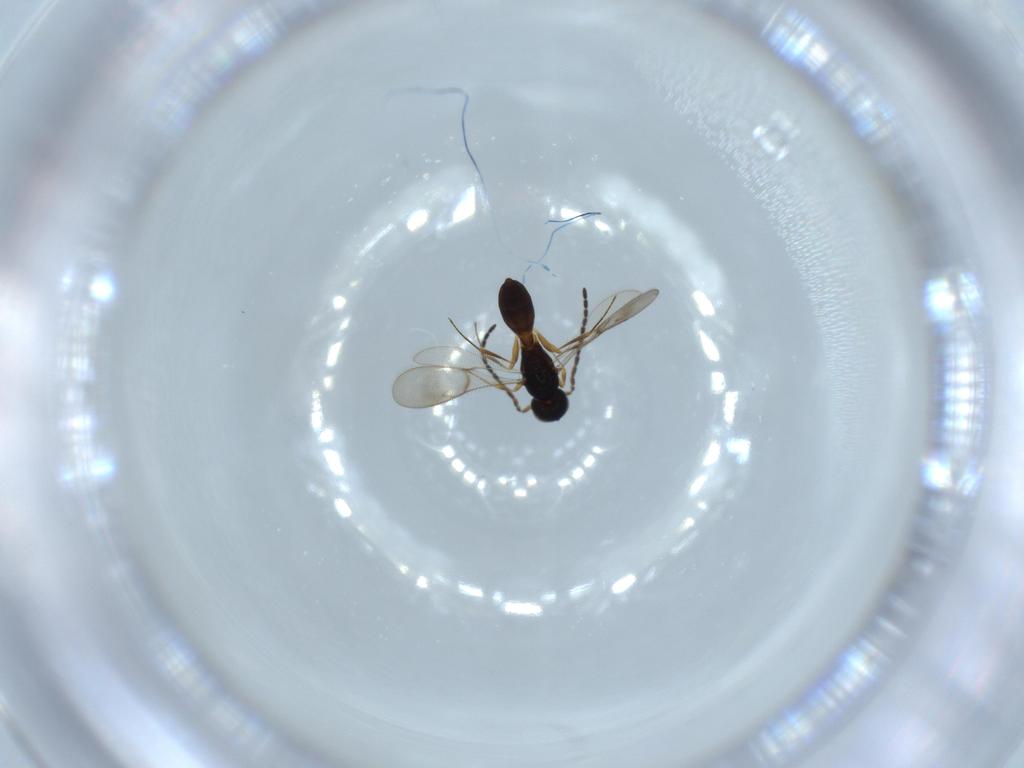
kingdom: Animalia
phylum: Arthropoda
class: Insecta
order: Hymenoptera
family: Scelionidae
